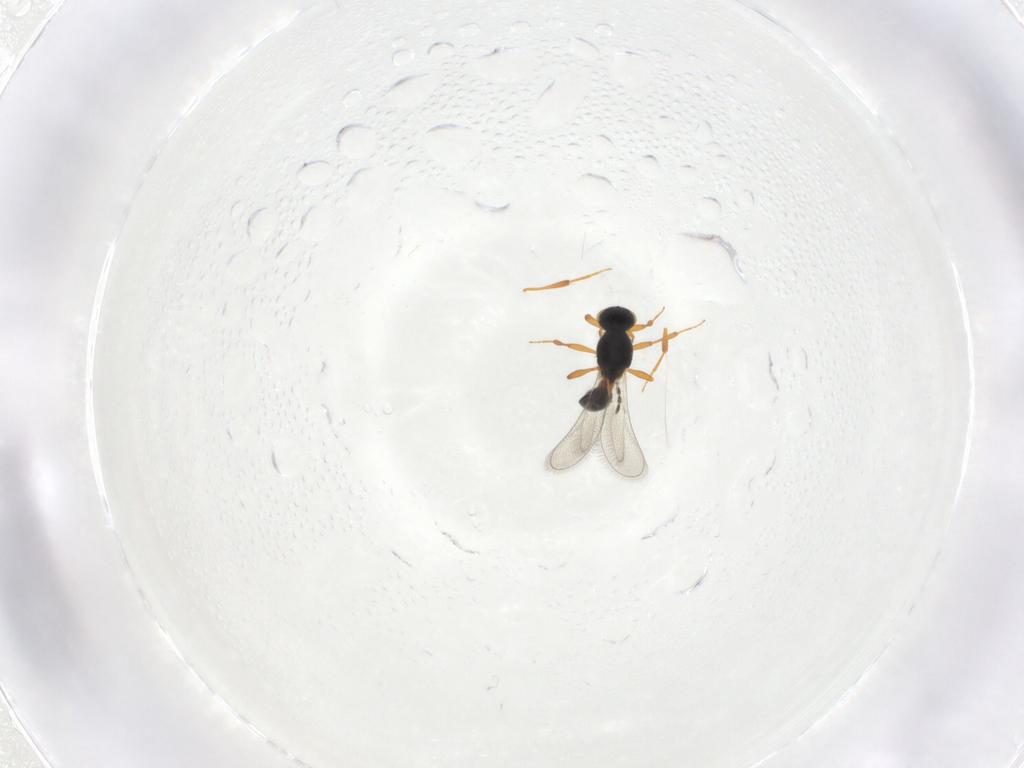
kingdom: Animalia
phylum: Arthropoda
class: Insecta
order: Hymenoptera
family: Platygastridae
